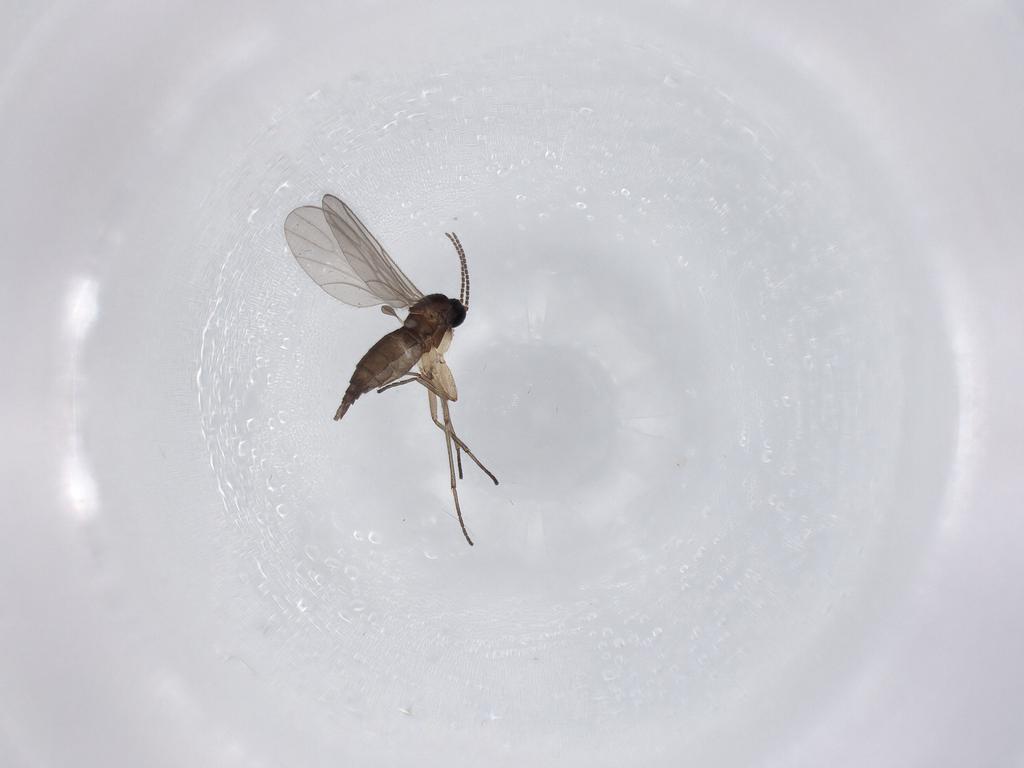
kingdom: Animalia
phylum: Arthropoda
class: Insecta
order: Diptera
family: Sciaridae
